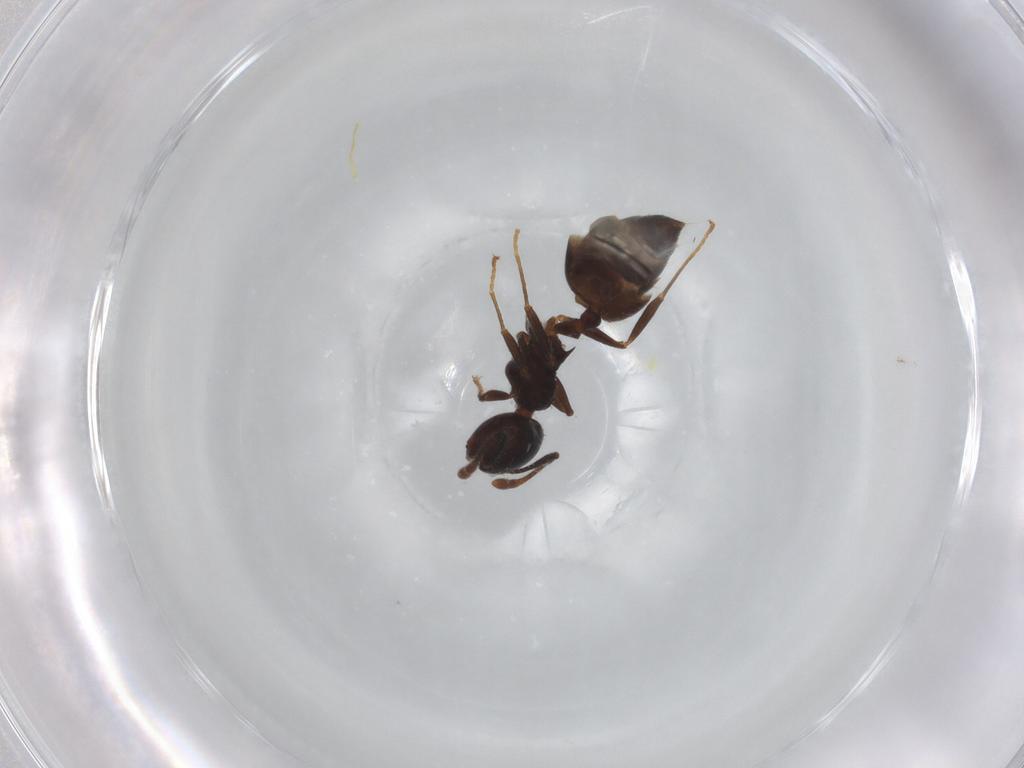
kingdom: Animalia
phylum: Arthropoda
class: Insecta
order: Hymenoptera
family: Formicidae
